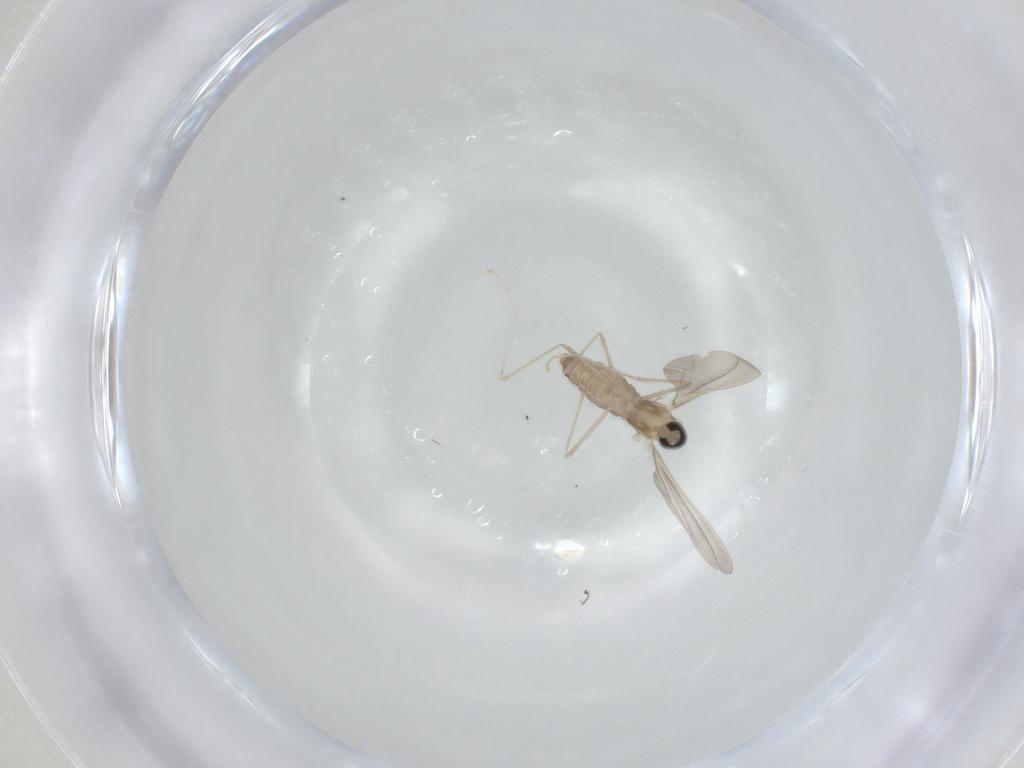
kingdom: Animalia
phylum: Arthropoda
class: Insecta
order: Diptera
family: Cecidomyiidae
